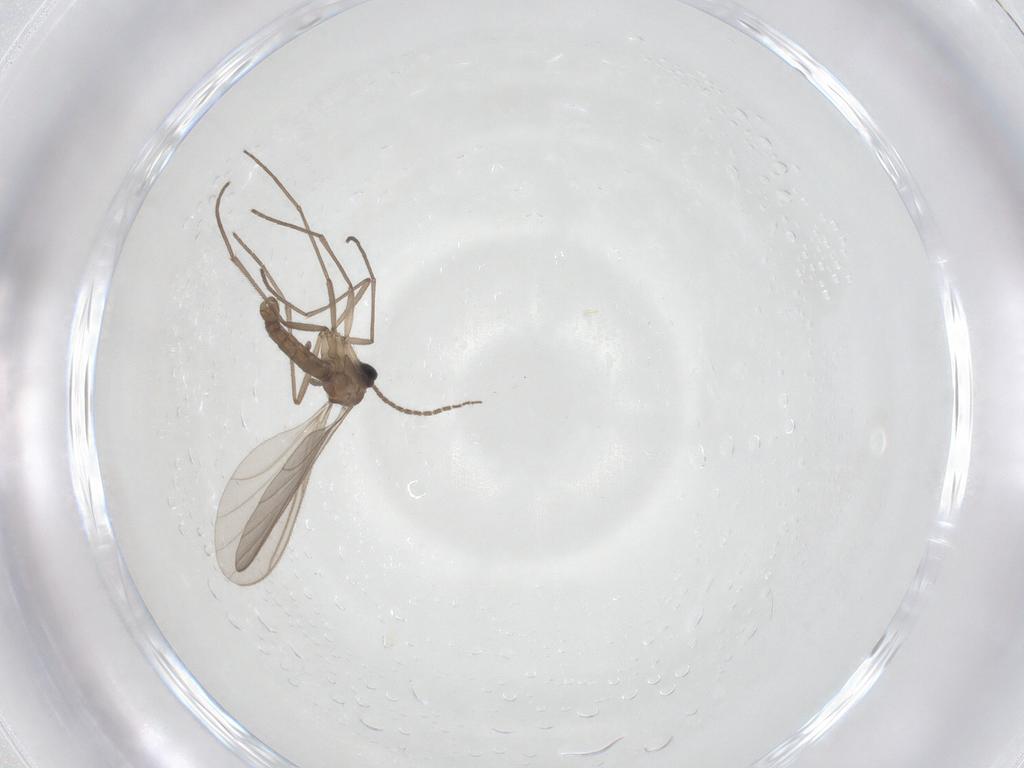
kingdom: Animalia
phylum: Arthropoda
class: Insecta
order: Diptera
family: Sciaridae
